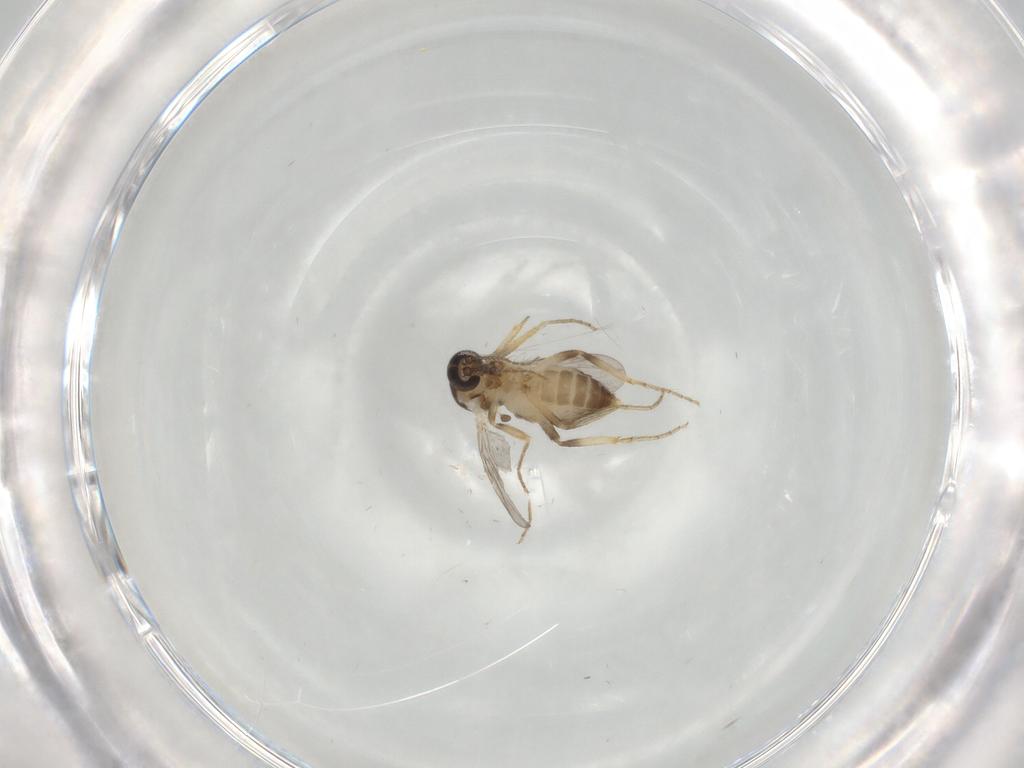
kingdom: Animalia
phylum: Arthropoda
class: Insecta
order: Diptera
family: Ceratopogonidae
